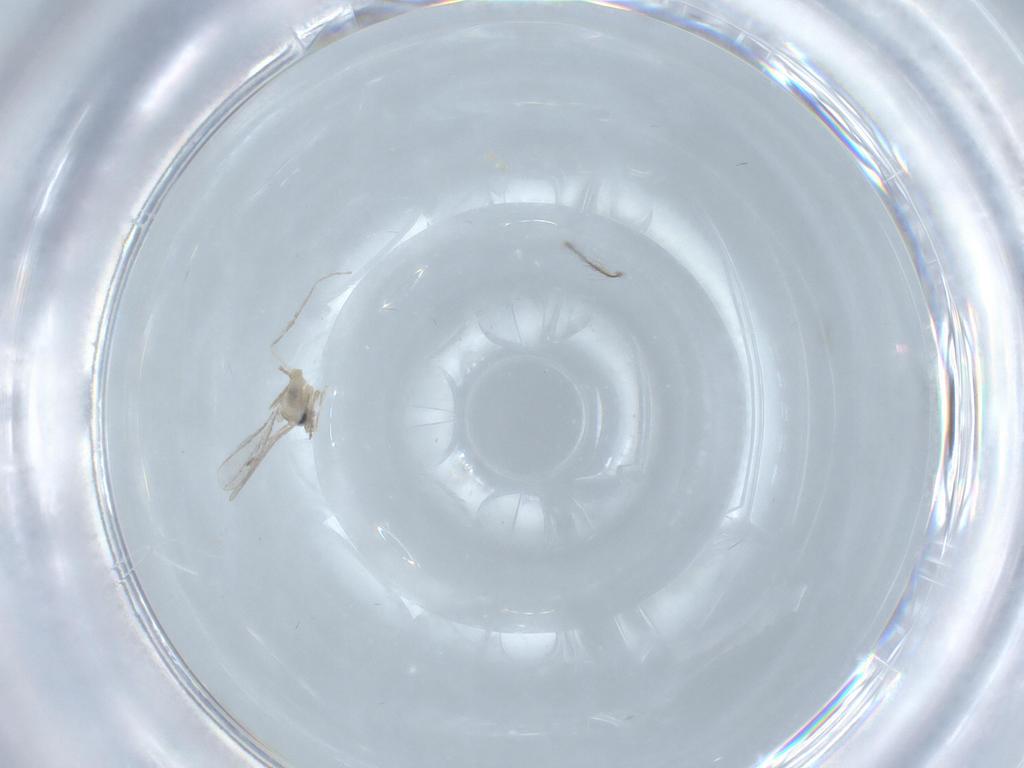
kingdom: Animalia
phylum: Arthropoda
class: Insecta
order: Diptera
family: Chironomidae
